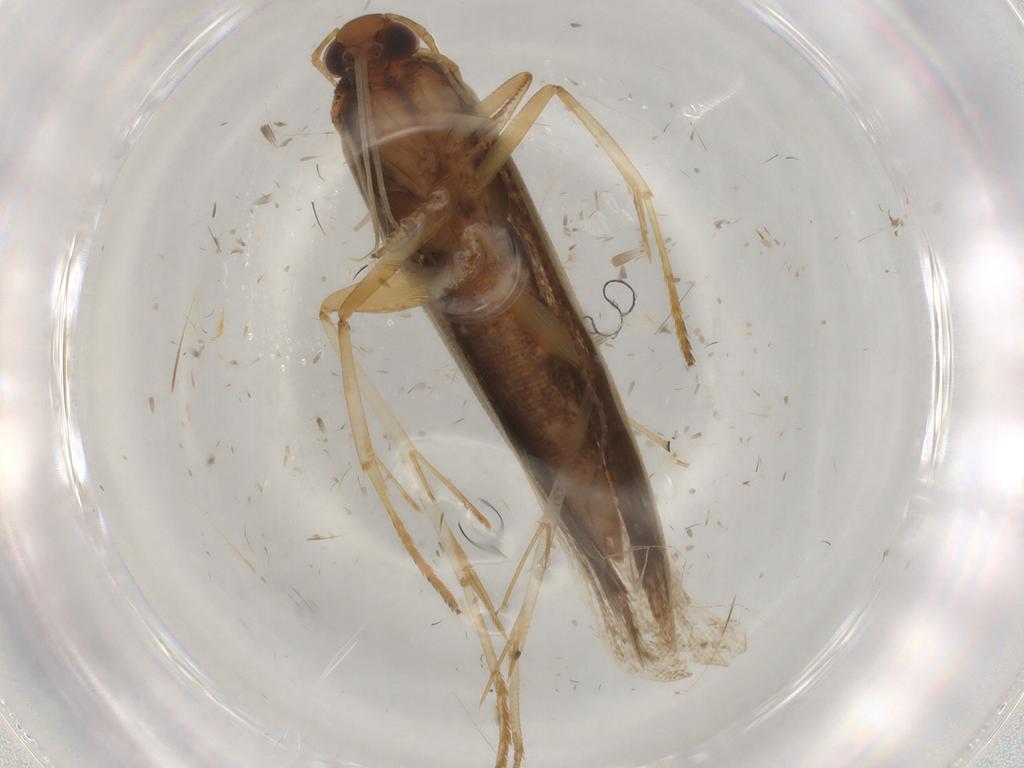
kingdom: Animalia
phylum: Arthropoda
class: Insecta
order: Lepidoptera
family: Gelechiidae
